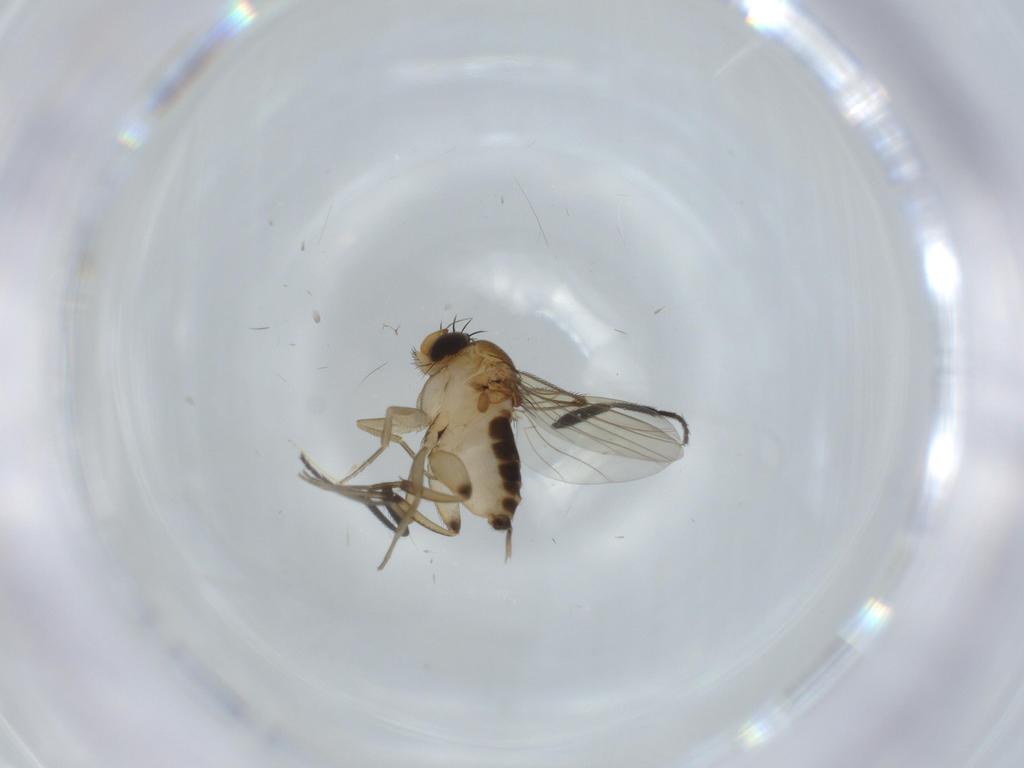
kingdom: Animalia
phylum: Arthropoda
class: Insecta
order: Diptera
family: Milichiidae
